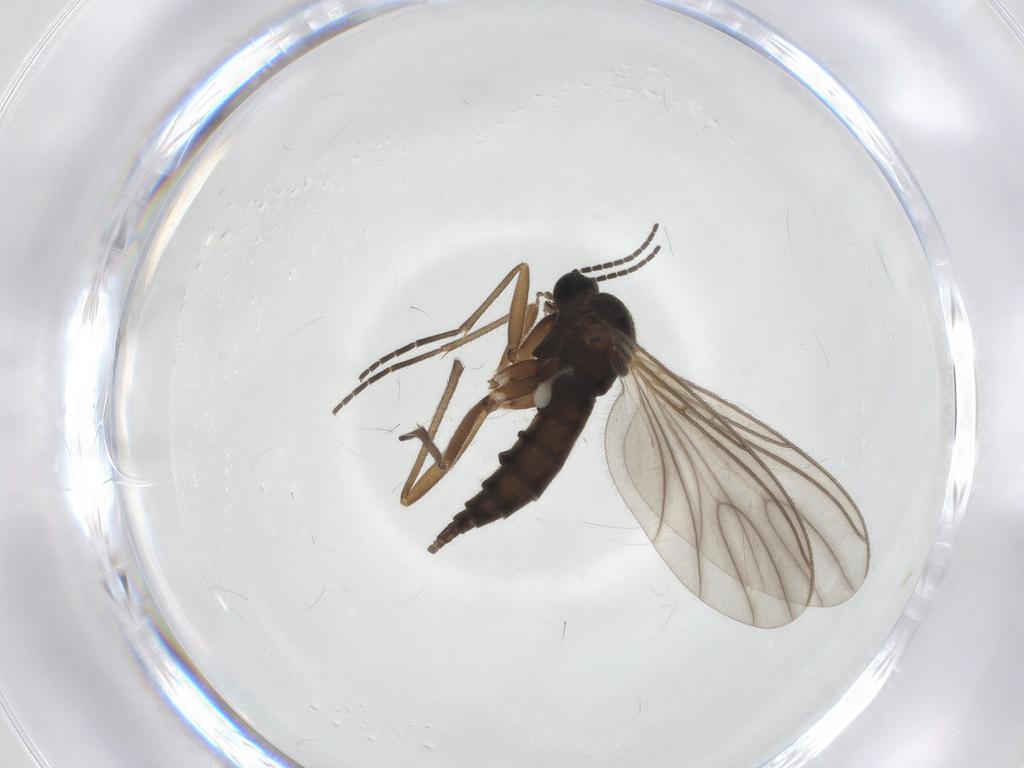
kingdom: Animalia
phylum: Arthropoda
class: Insecta
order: Diptera
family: Sciaridae
